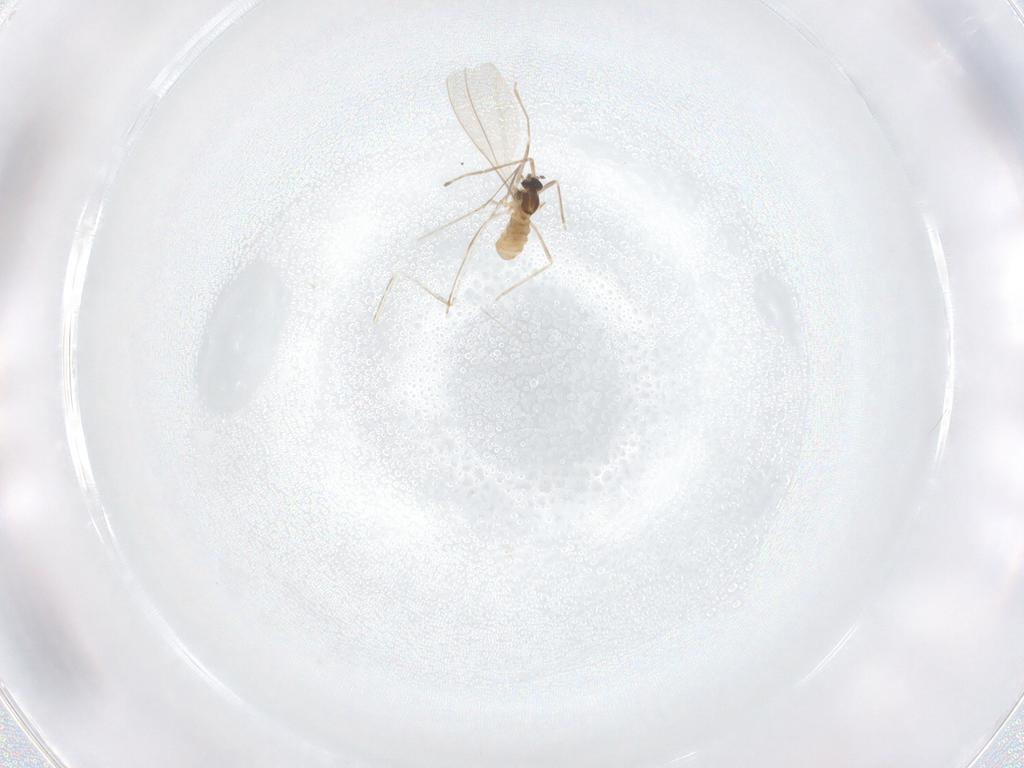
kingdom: Animalia
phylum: Arthropoda
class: Insecta
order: Diptera
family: Cecidomyiidae
